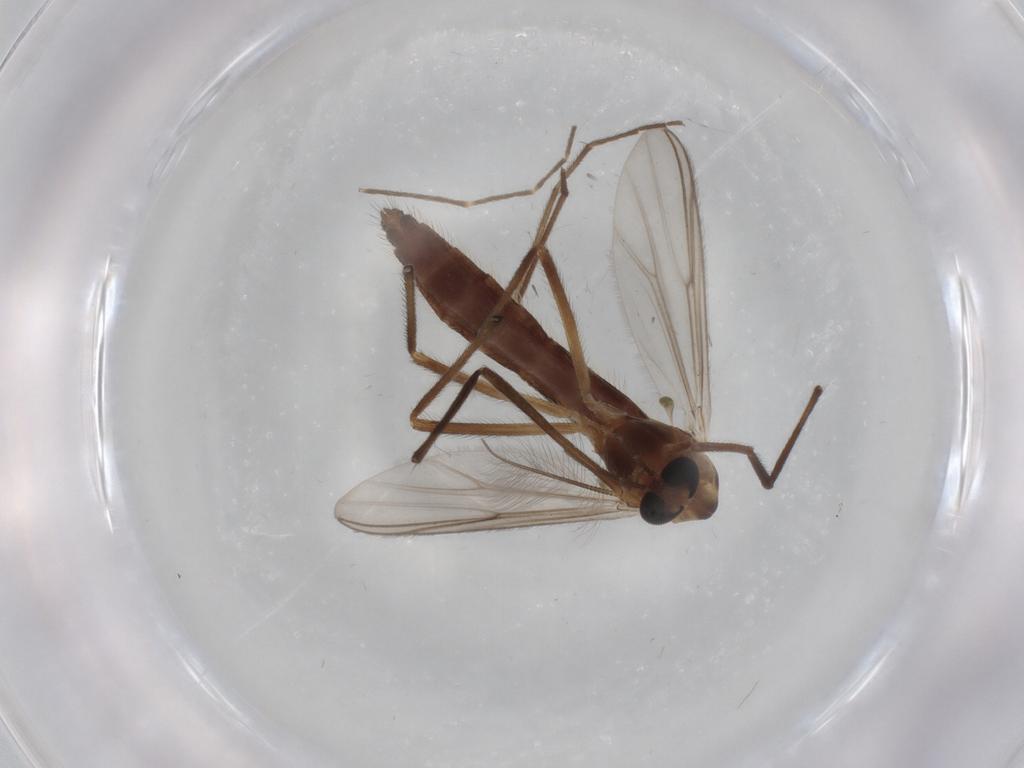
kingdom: Animalia
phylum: Arthropoda
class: Insecta
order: Diptera
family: Chironomidae
